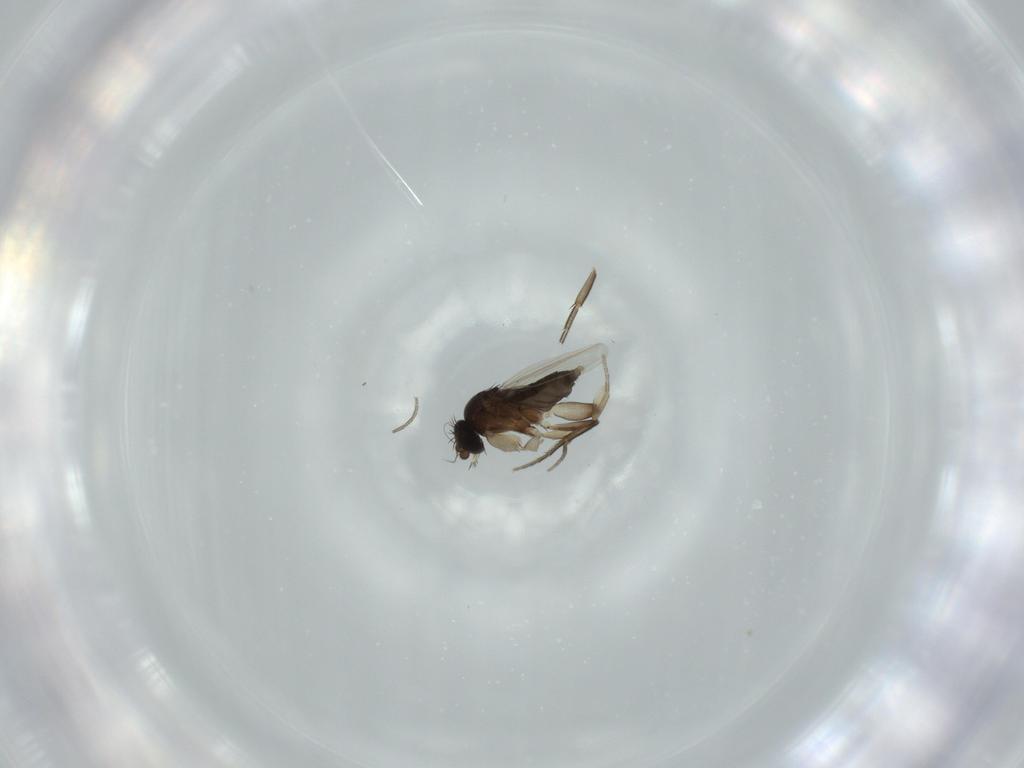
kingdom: Animalia
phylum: Arthropoda
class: Insecta
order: Diptera
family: Phoridae
